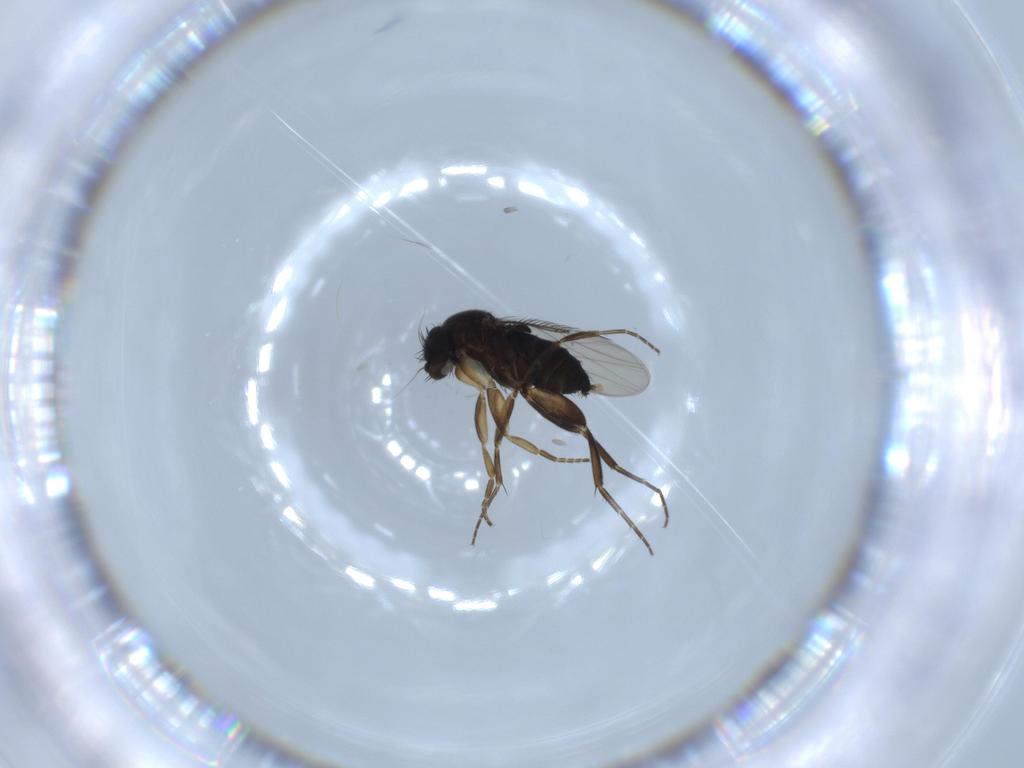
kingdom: Animalia
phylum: Arthropoda
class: Insecta
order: Diptera
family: Phoridae
